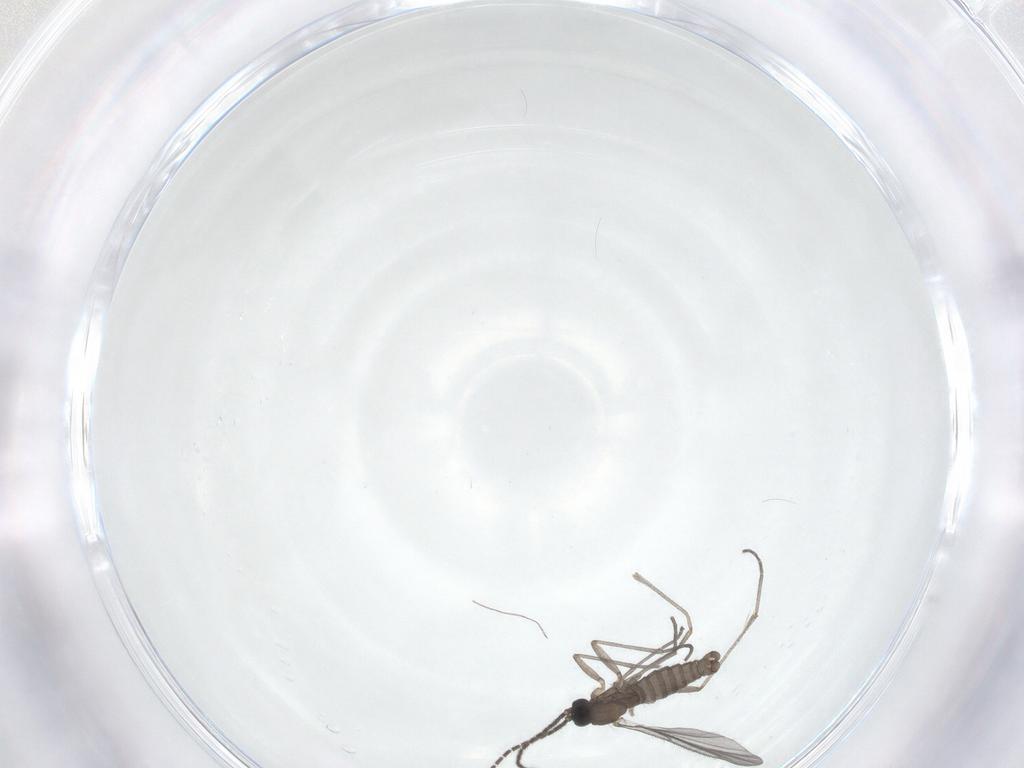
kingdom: Animalia
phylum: Arthropoda
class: Insecta
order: Diptera
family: Sciaridae
